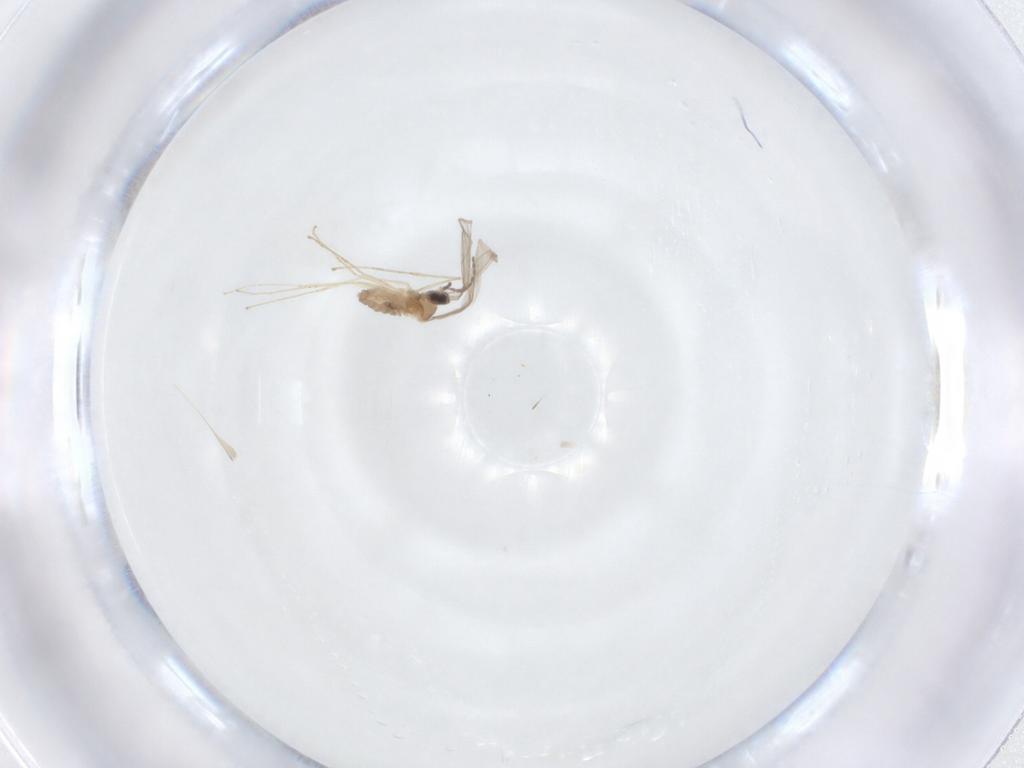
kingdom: Animalia
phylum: Arthropoda
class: Insecta
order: Diptera
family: Cecidomyiidae
